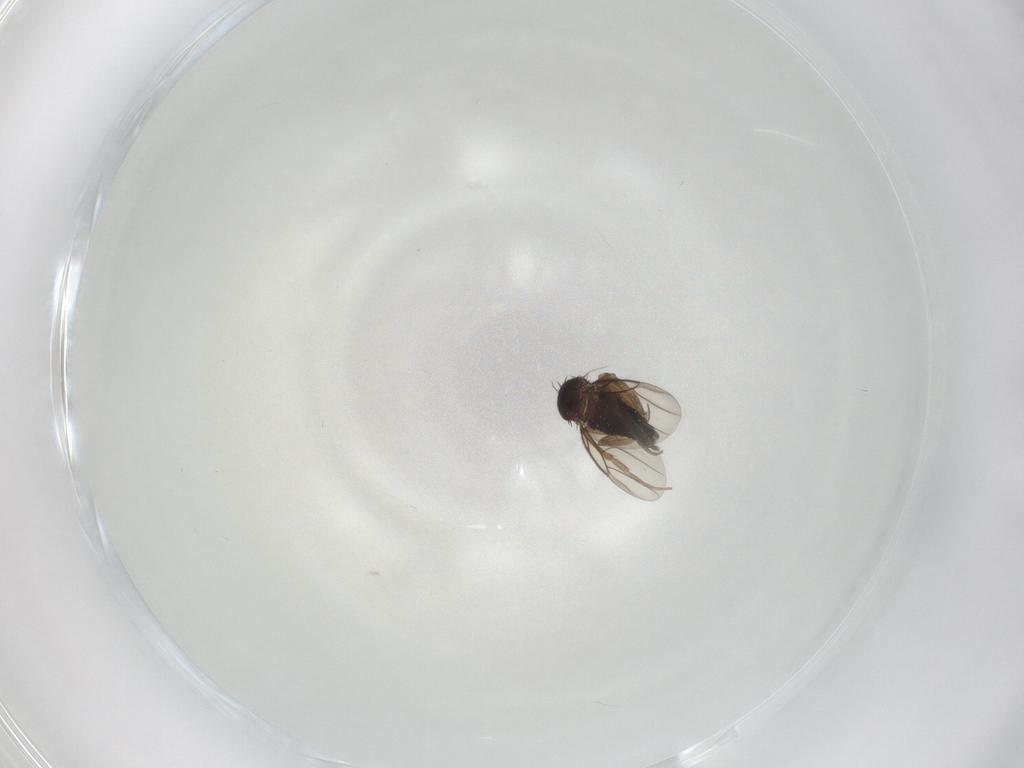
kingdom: Animalia
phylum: Arthropoda
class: Insecta
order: Diptera
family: Phoridae
